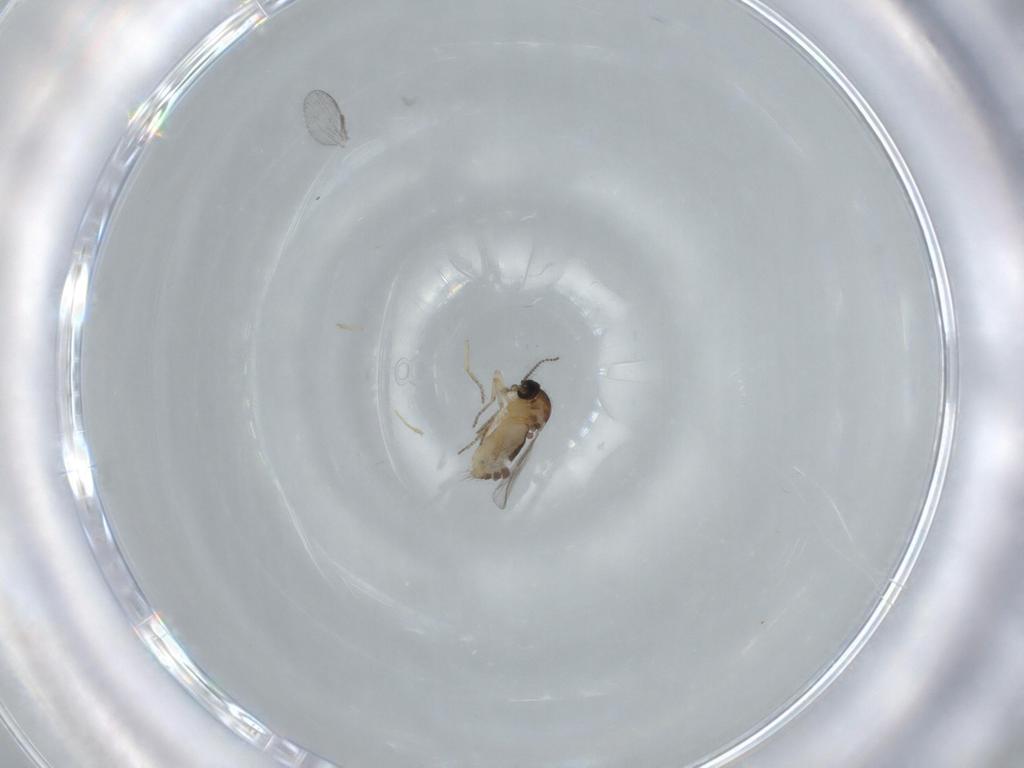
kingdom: Animalia
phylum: Arthropoda
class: Insecta
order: Diptera
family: Ceratopogonidae
